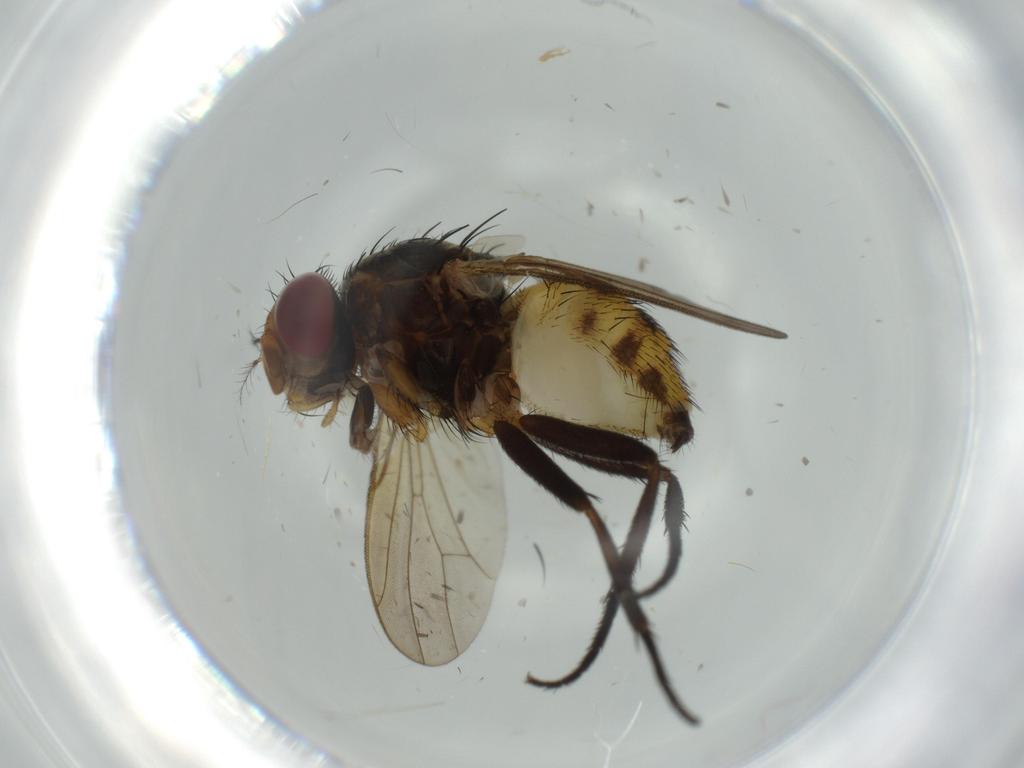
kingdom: Animalia
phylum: Arthropoda
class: Insecta
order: Diptera
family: Anthomyiidae
